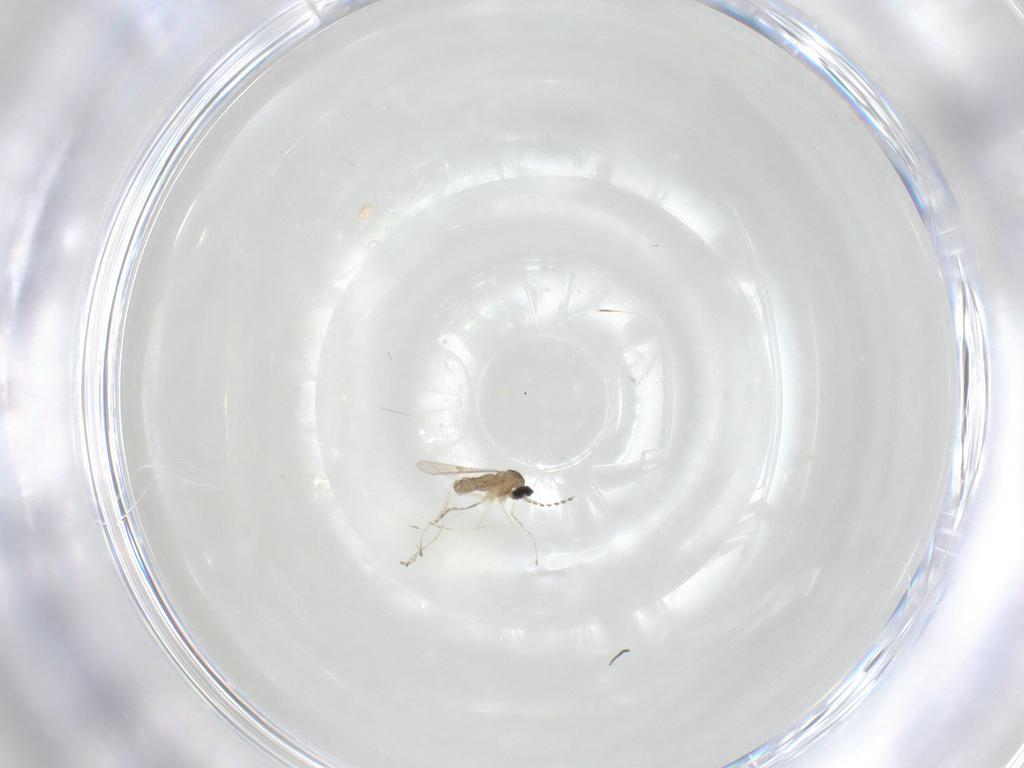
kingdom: Animalia
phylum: Arthropoda
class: Insecta
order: Diptera
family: Cecidomyiidae
